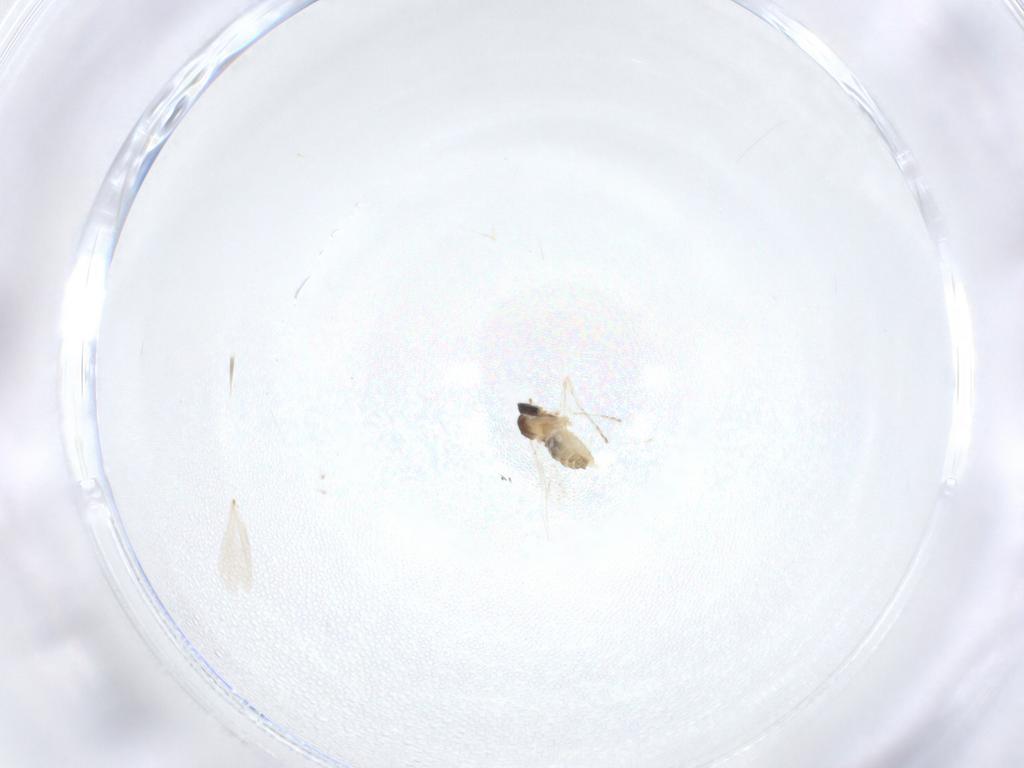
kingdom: Animalia
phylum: Arthropoda
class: Insecta
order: Diptera
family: Cecidomyiidae
